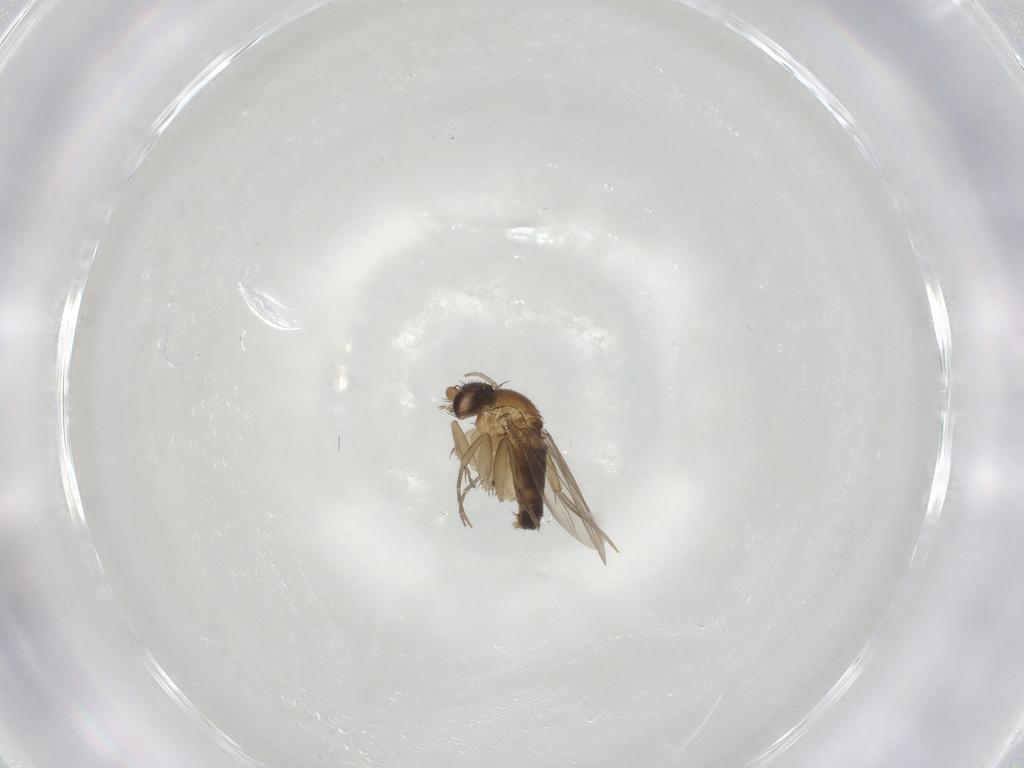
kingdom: Animalia
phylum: Arthropoda
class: Insecta
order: Diptera
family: Phoridae
